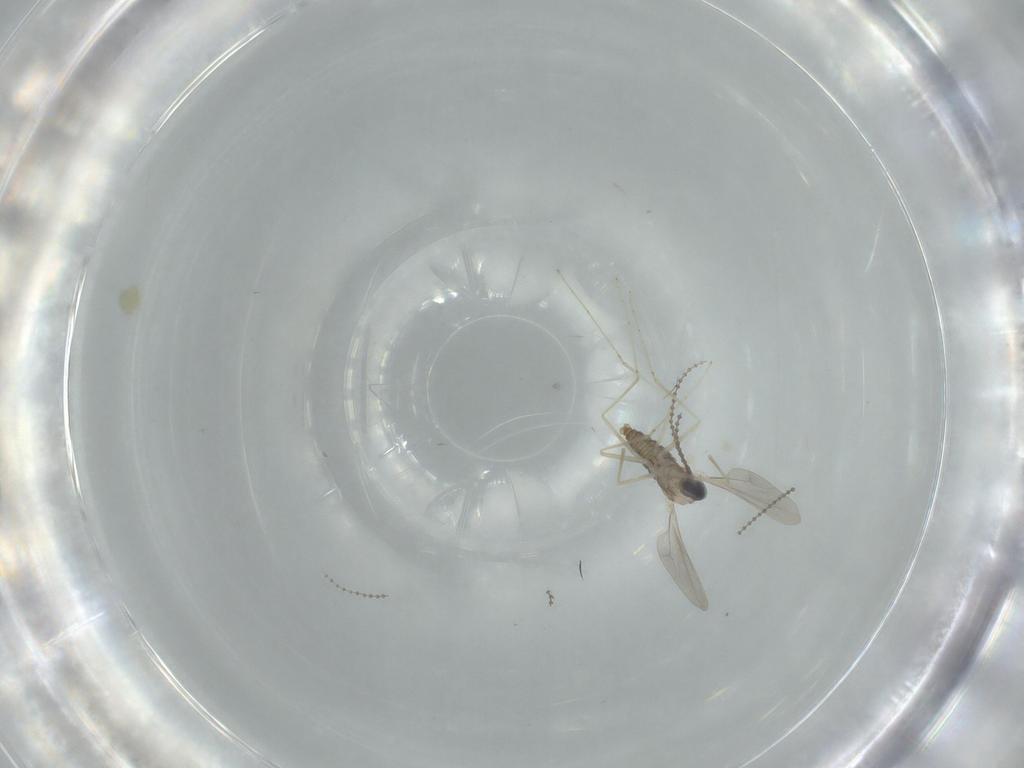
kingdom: Animalia
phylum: Arthropoda
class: Insecta
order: Diptera
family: Cecidomyiidae
